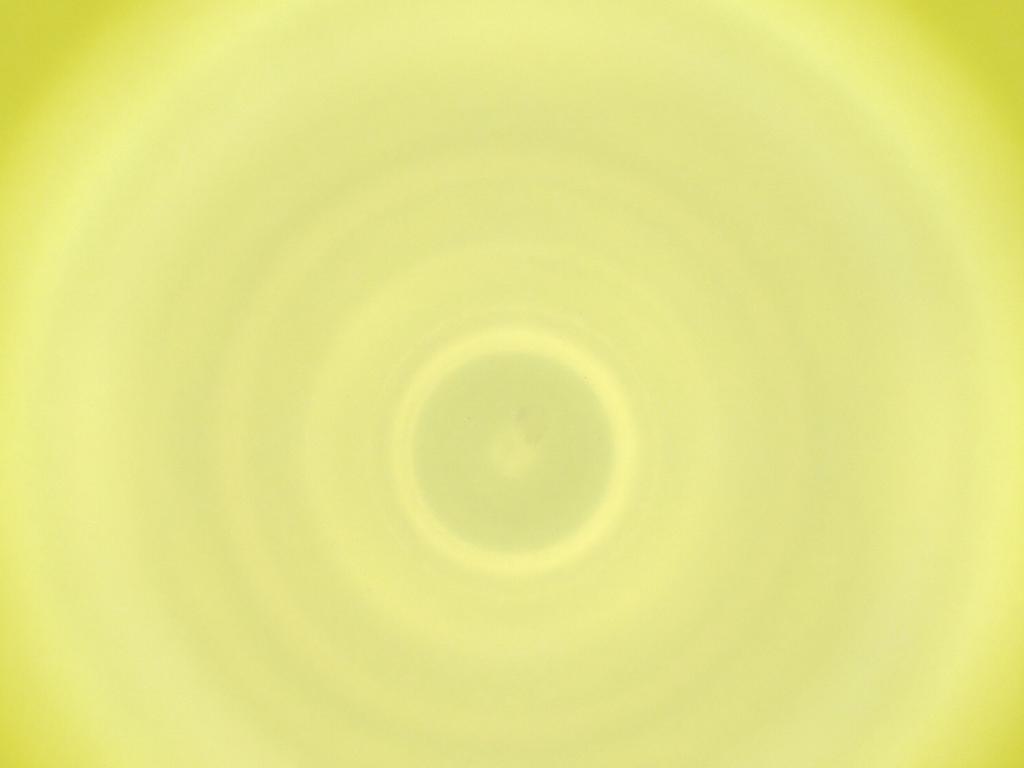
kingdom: Animalia
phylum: Arthropoda
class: Insecta
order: Diptera
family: Cecidomyiidae
